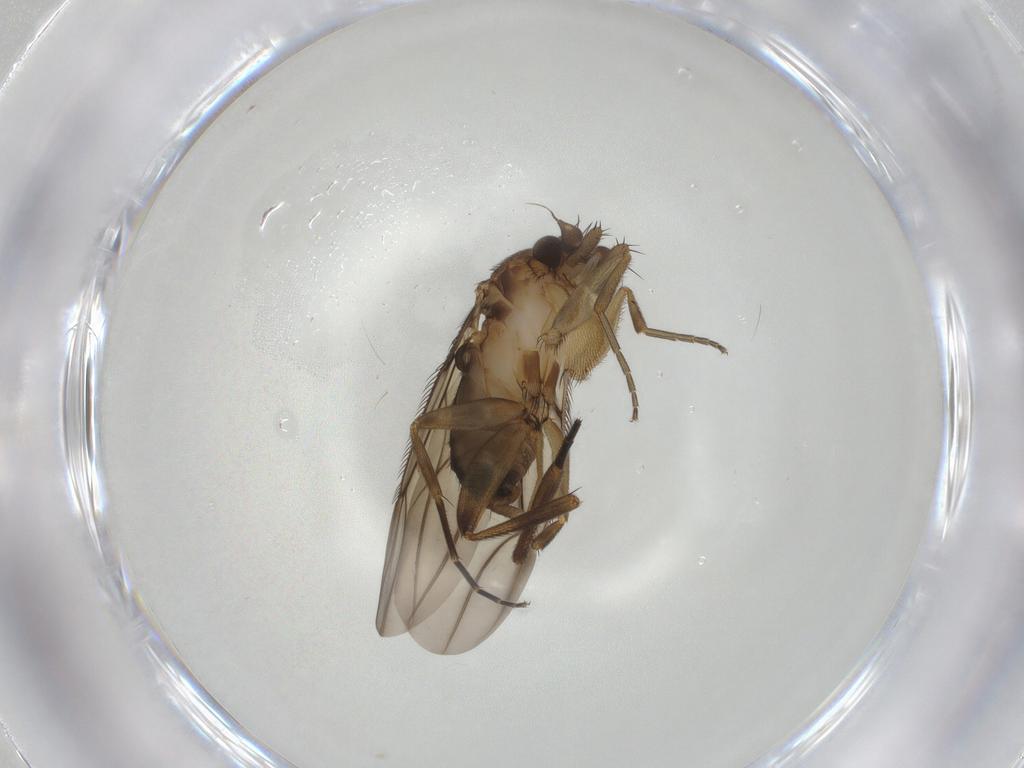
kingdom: Animalia
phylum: Arthropoda
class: Insecta
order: Diptera
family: Phoridae
